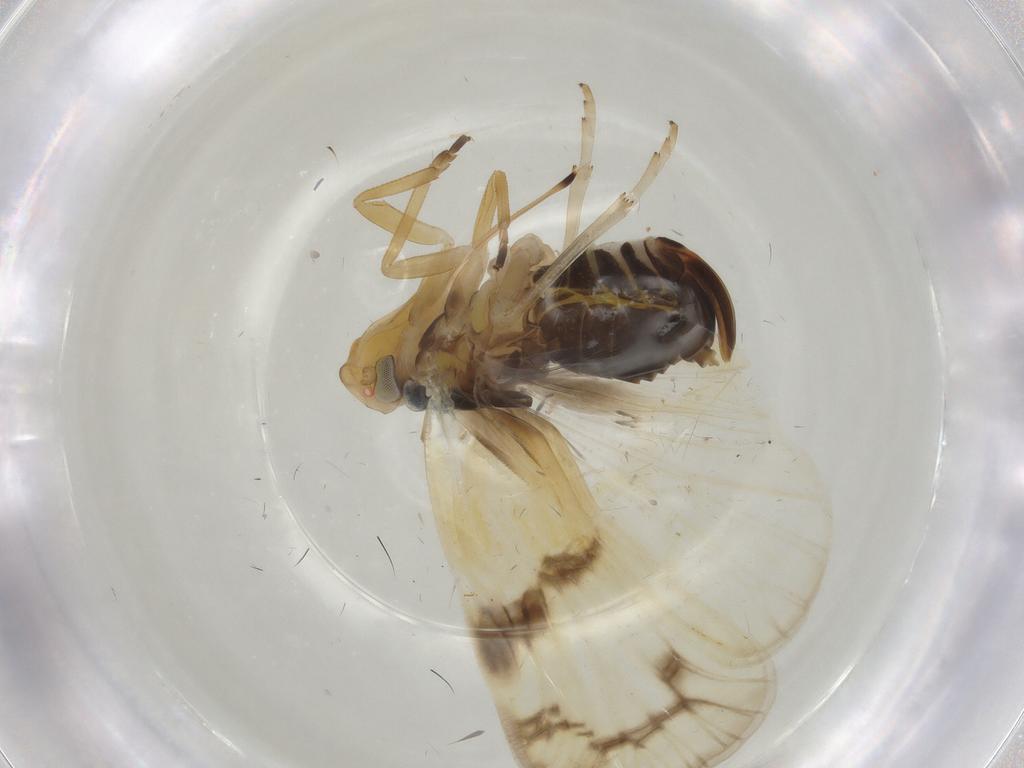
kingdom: Animalia
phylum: Arthropoda
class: Insecta
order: Hemiptera
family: Cixiidae
